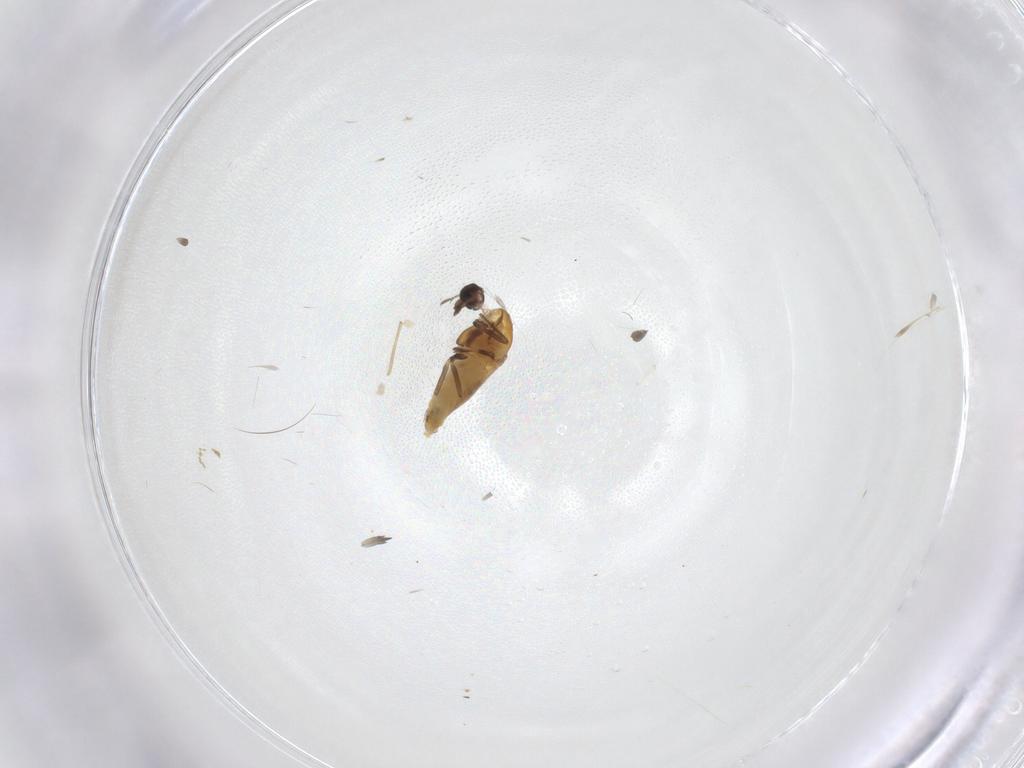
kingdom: Animalia
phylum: Arthropoda
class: Insecta
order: Diptera
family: Chironomidae
